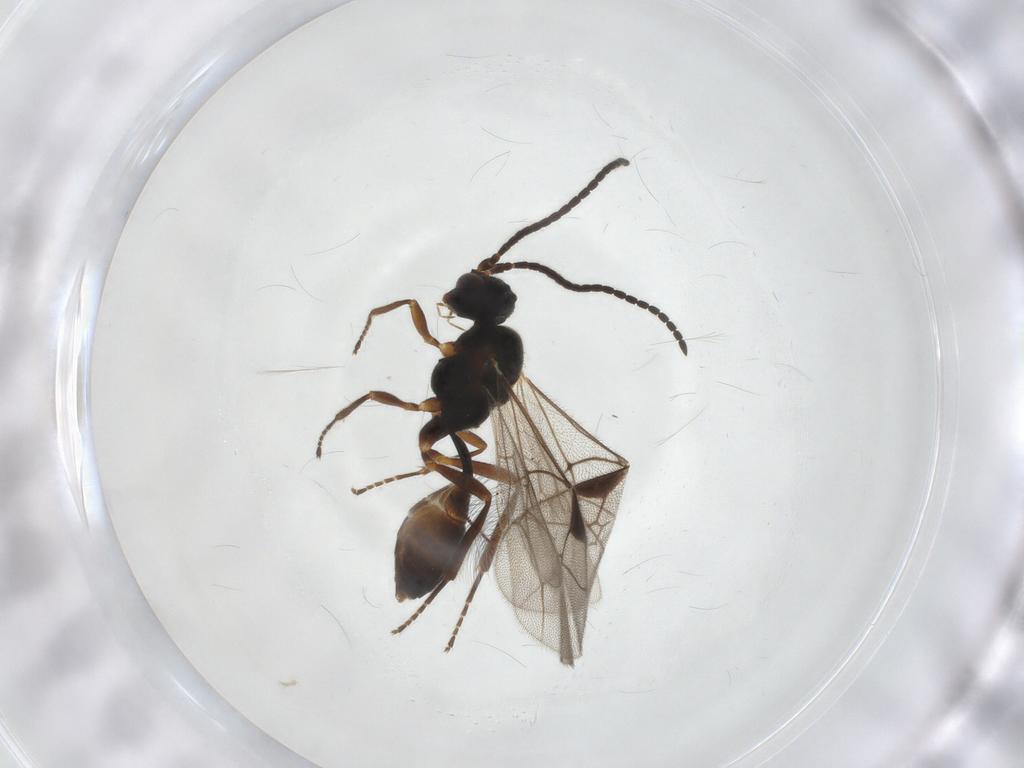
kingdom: Animalia
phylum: Arthropoda
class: Insecta
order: Hymenoptera
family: Ichneumonidae
